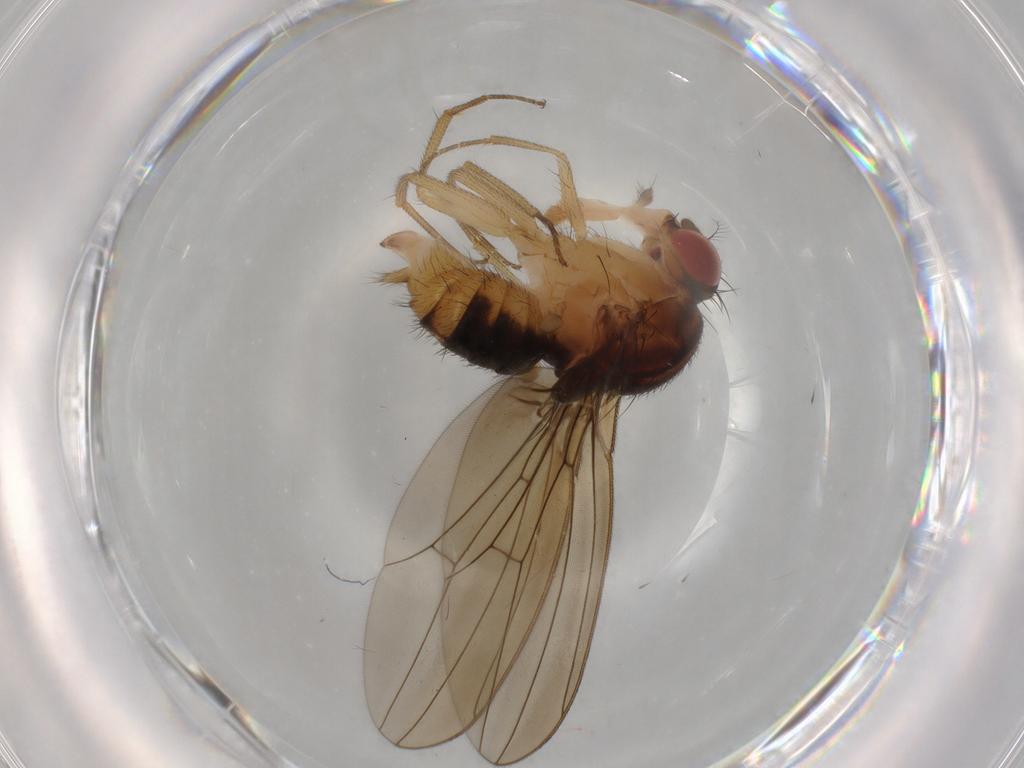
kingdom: Animalia
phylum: Arthropoda
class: Insecta
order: Diptera
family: Drosophilidae
